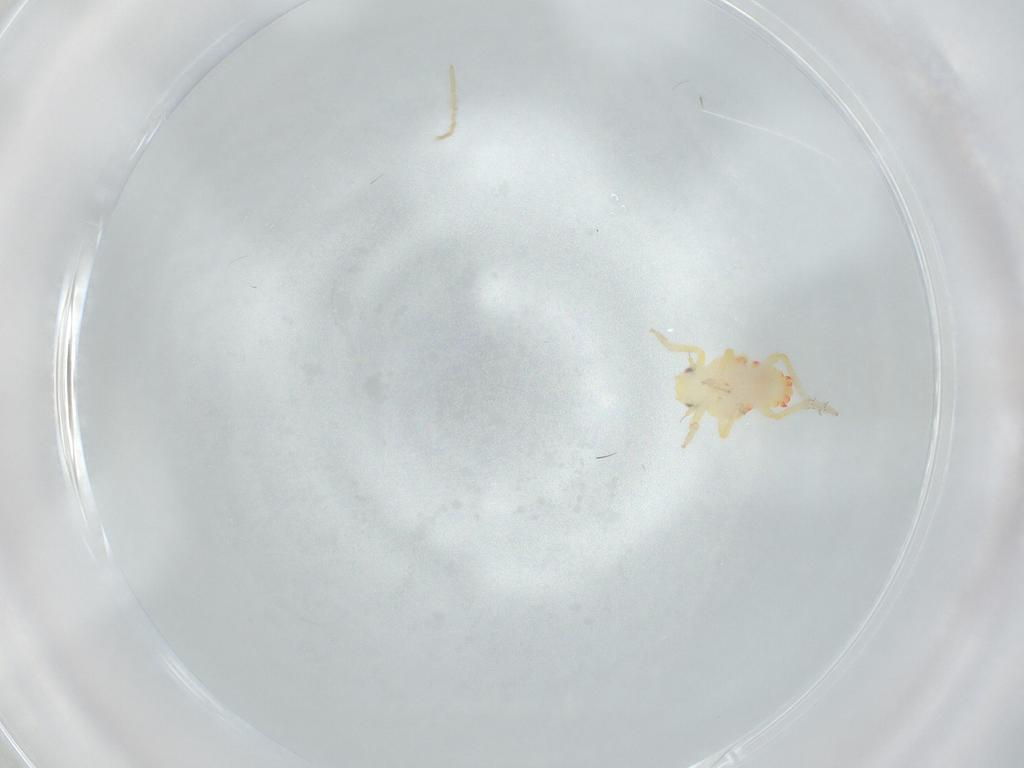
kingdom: Animalia
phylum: Arthropoda
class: Insecta
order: Hemiptera
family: Tropiduchidae
